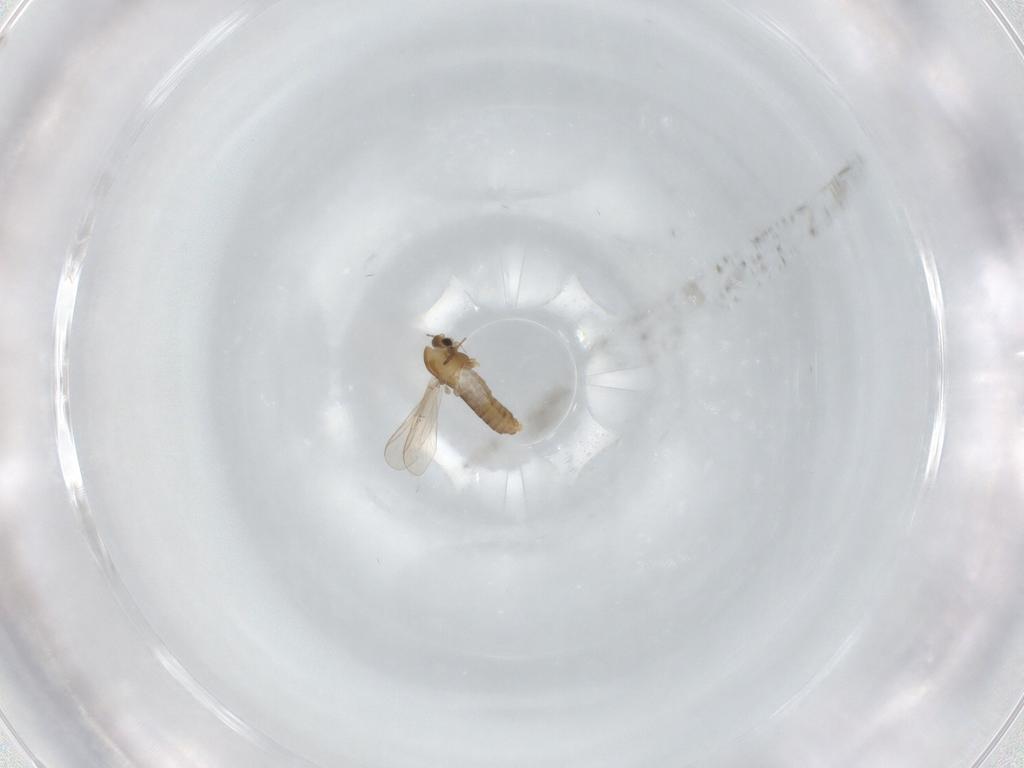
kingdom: Animalia
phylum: Arthropoda
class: Insecta
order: Diptera
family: Chironomidae
